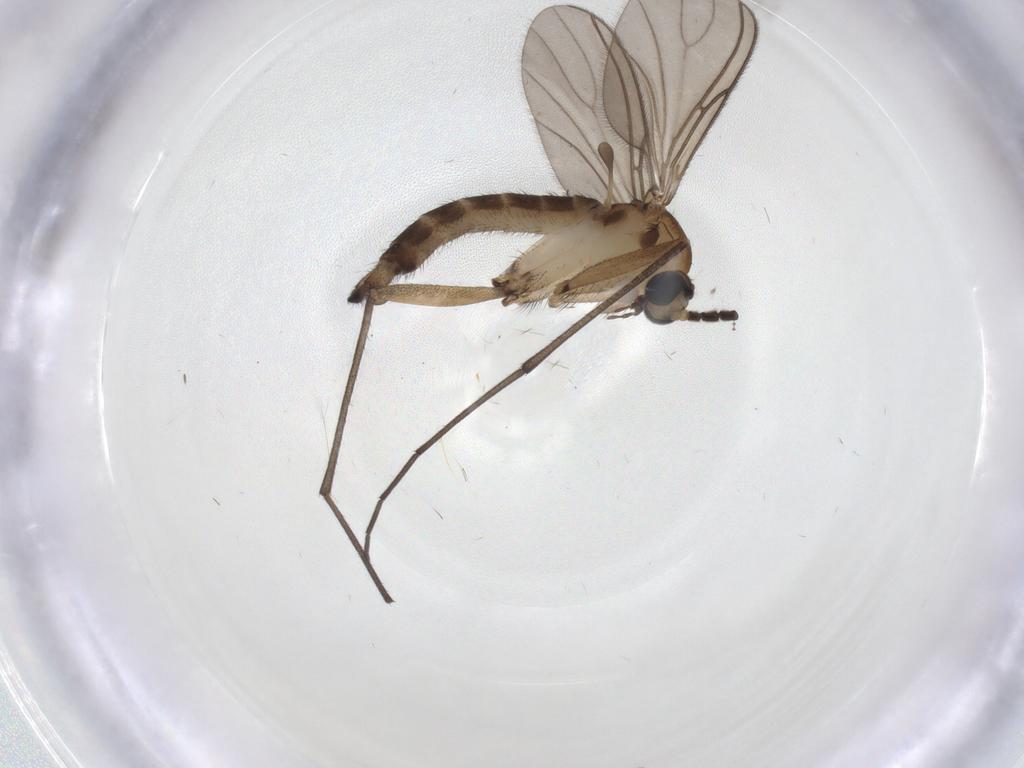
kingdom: Animalia
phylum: Arthropoda
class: Insecta
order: Diptera
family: Sciaridae
